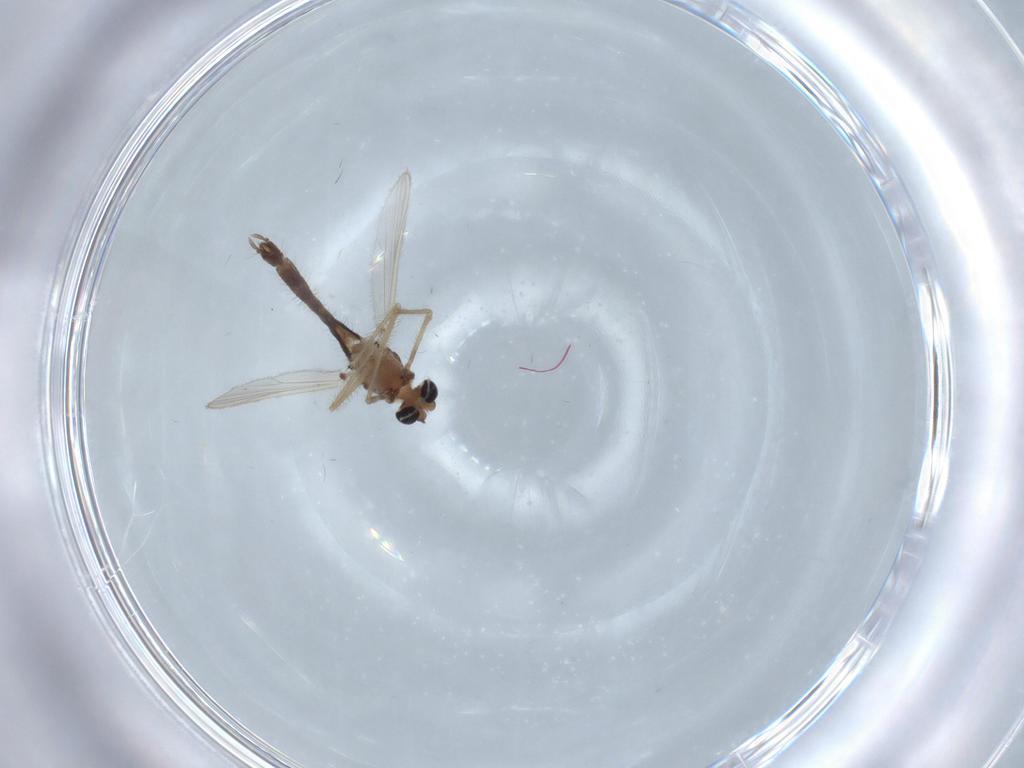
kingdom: Animalia
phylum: Arthropoda
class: Insecta
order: Diptera
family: Chironomidae
